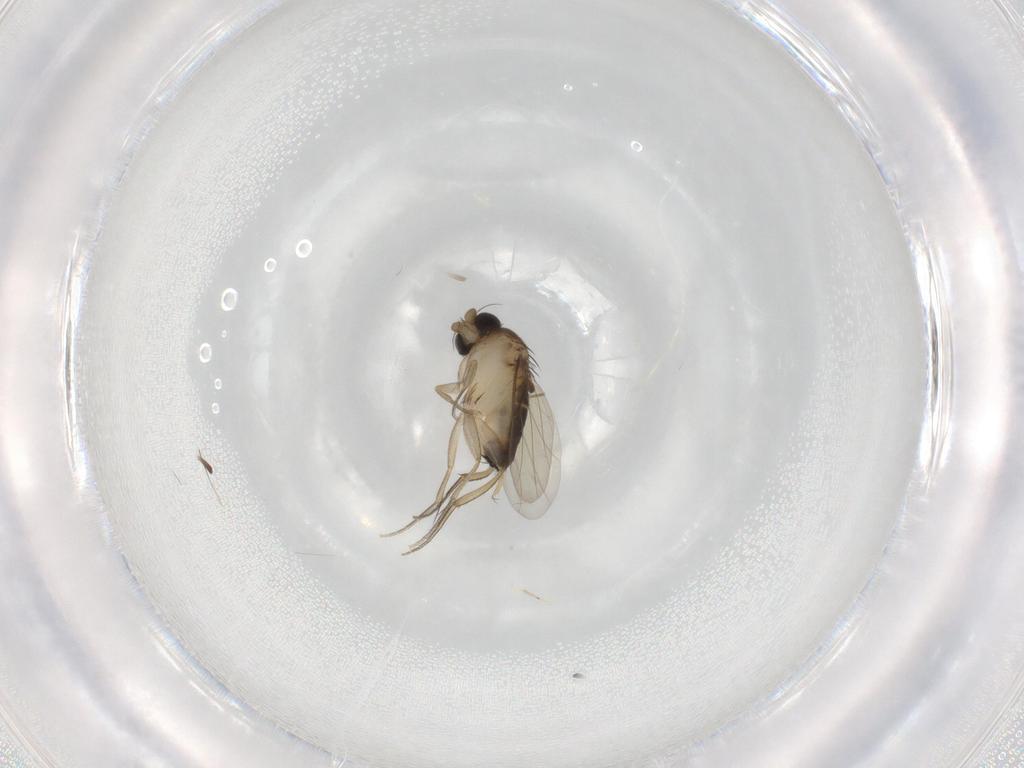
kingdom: Animalia
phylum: Arthropoda
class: Insecta
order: Diptera
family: Phoridae
